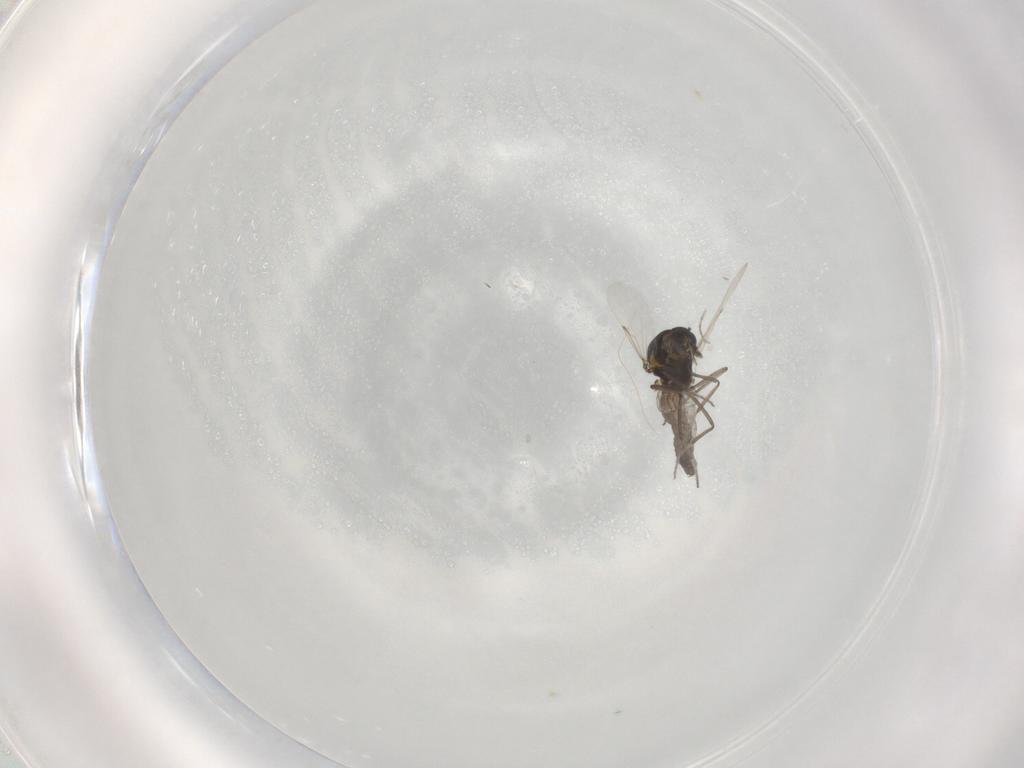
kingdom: Animalia
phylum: Arthropoda
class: Insecta
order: Diptera
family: Ceratopogonidae
